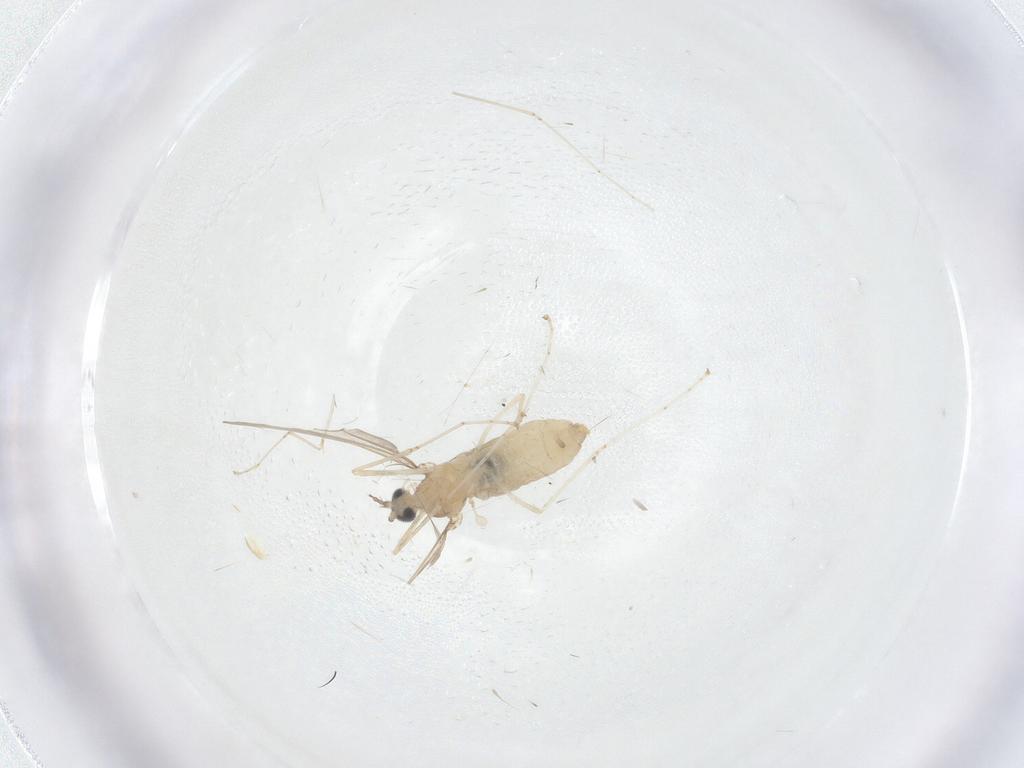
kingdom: Animalia
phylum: Arthropoda
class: Insecta
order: Diptera
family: Cecidomyiidae
